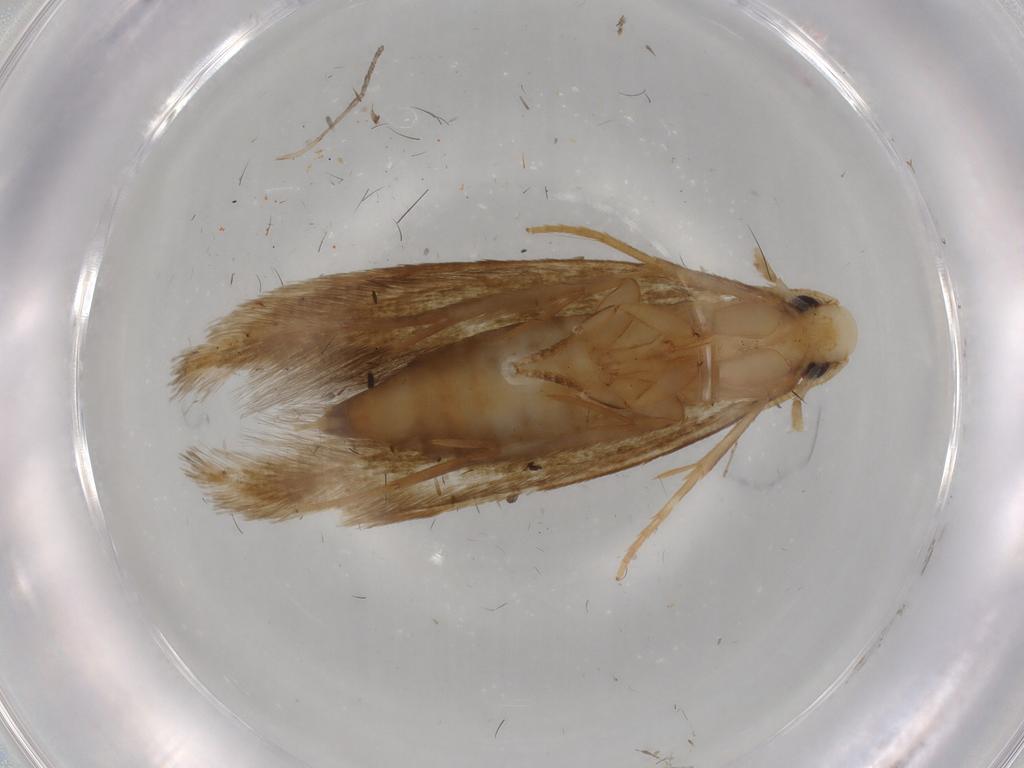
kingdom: Animalia
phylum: Arthropoda
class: Insecta
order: Lepidoptera
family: Tineidae
